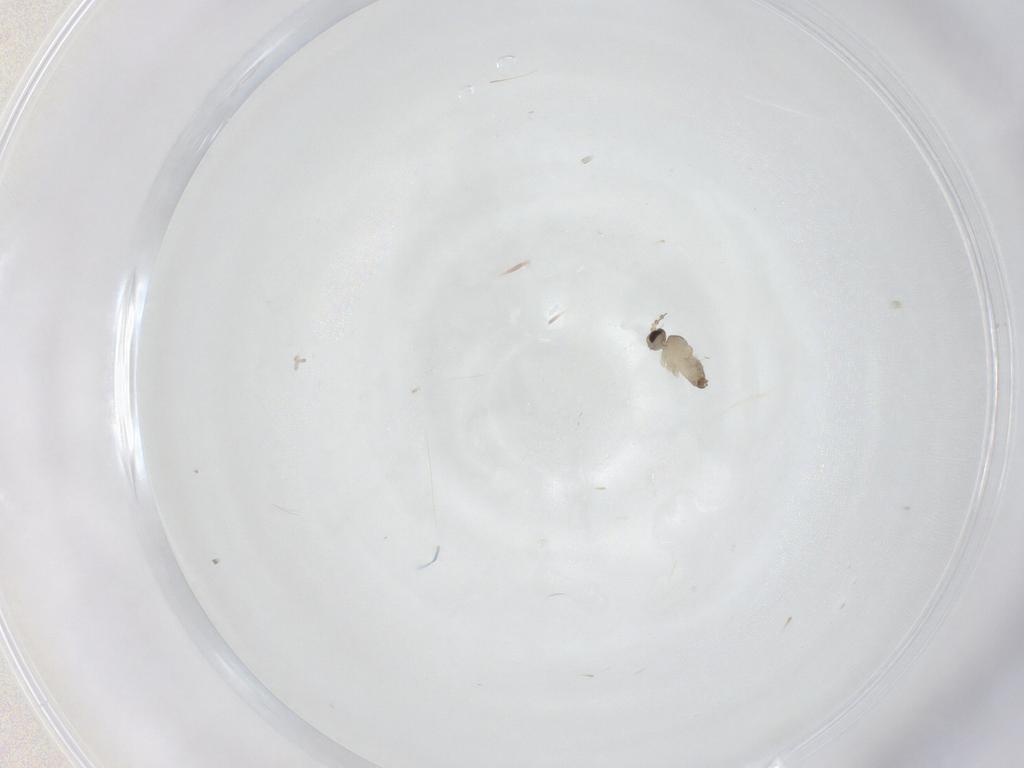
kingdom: Animalia
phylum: Arthropoda
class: Insecta
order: Diptera
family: Cecidomyiidae
